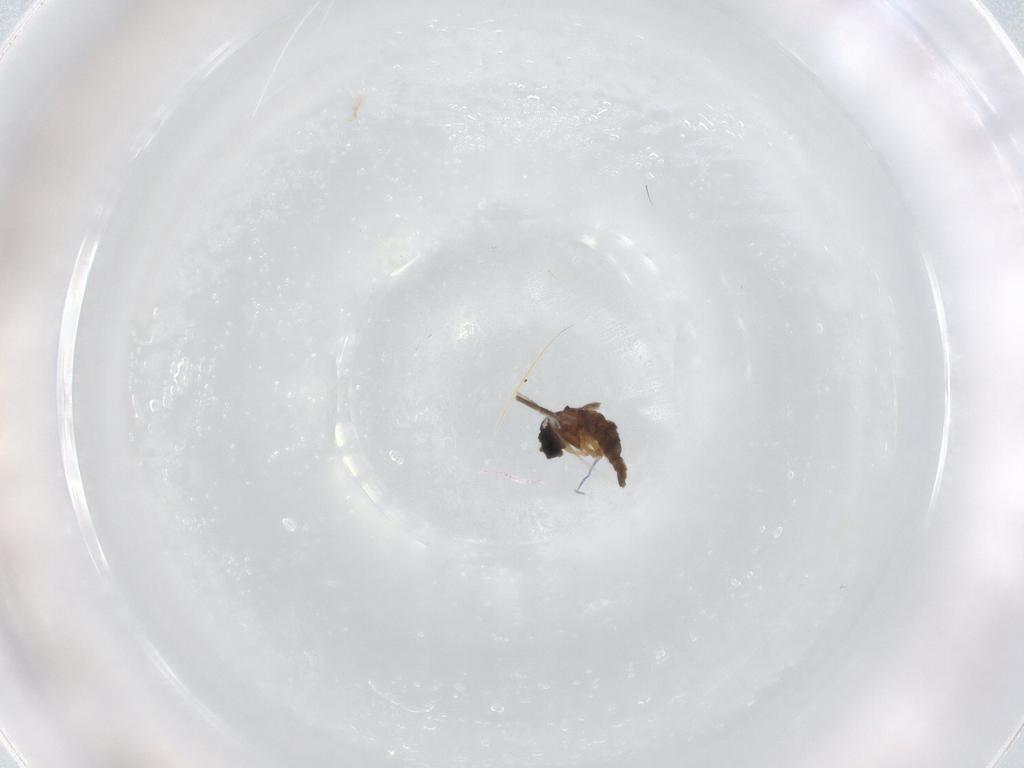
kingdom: Animalia
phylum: Arthropoda
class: Insecta
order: Diptera
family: Sciaridae
